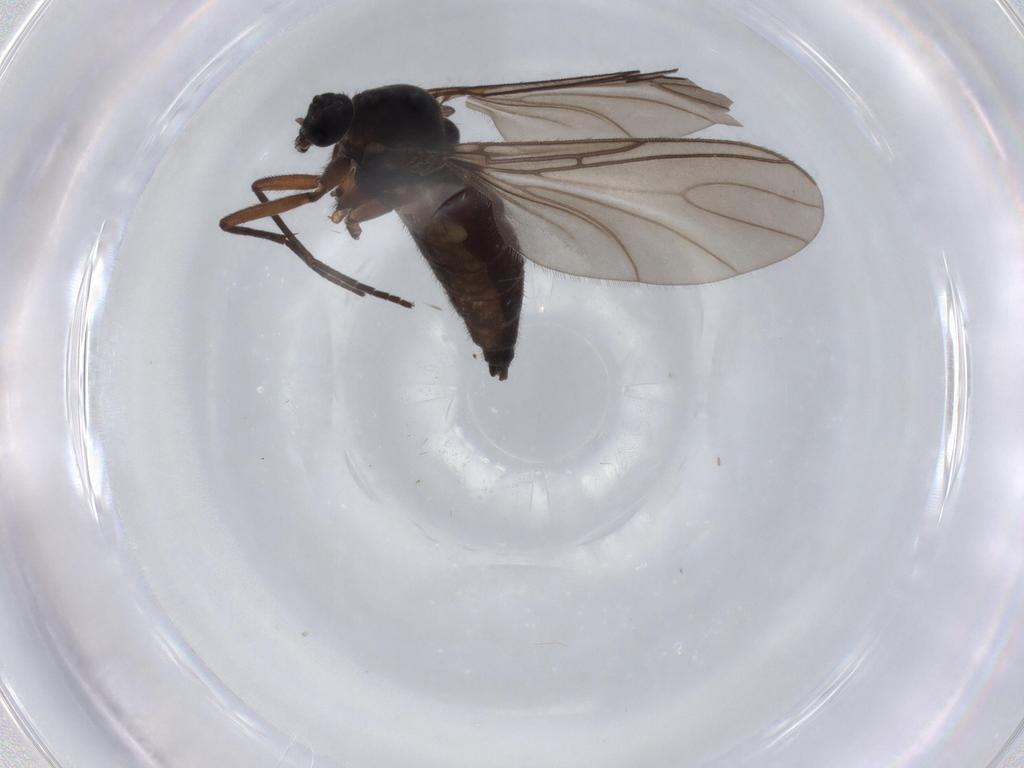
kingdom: Animalia
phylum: Arthropoda
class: Insecta
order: Diptera
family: Sciaridae
